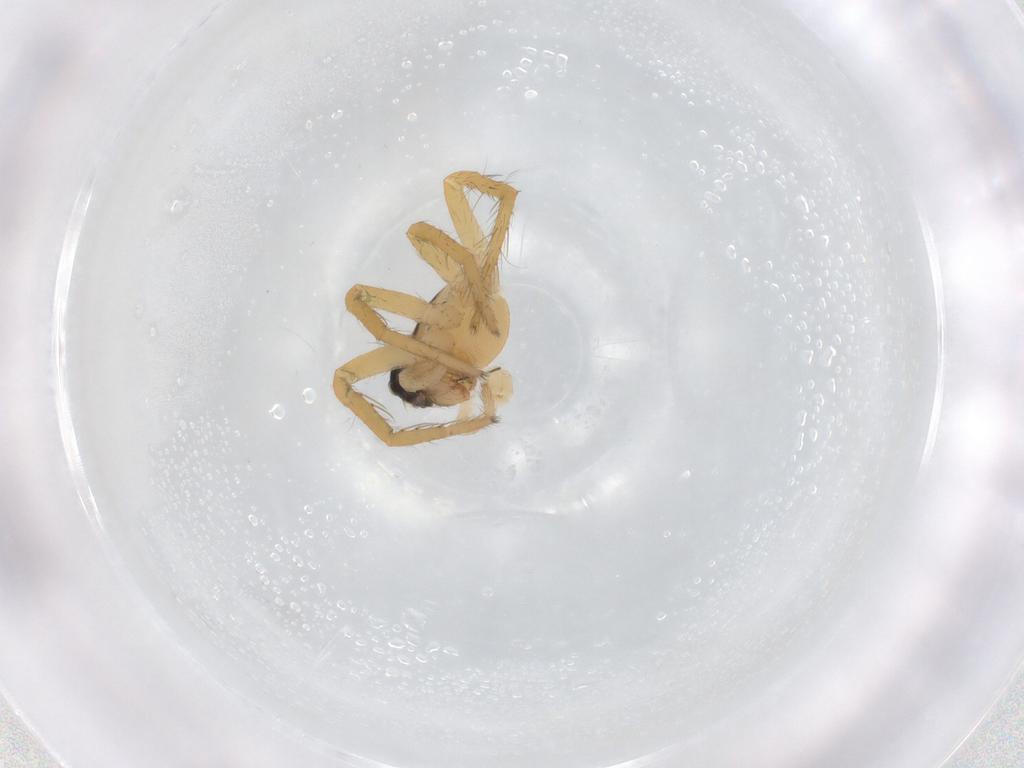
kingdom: Animalia
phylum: Arthropoda
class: Arachnida
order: Araneae
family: Lycosidae
